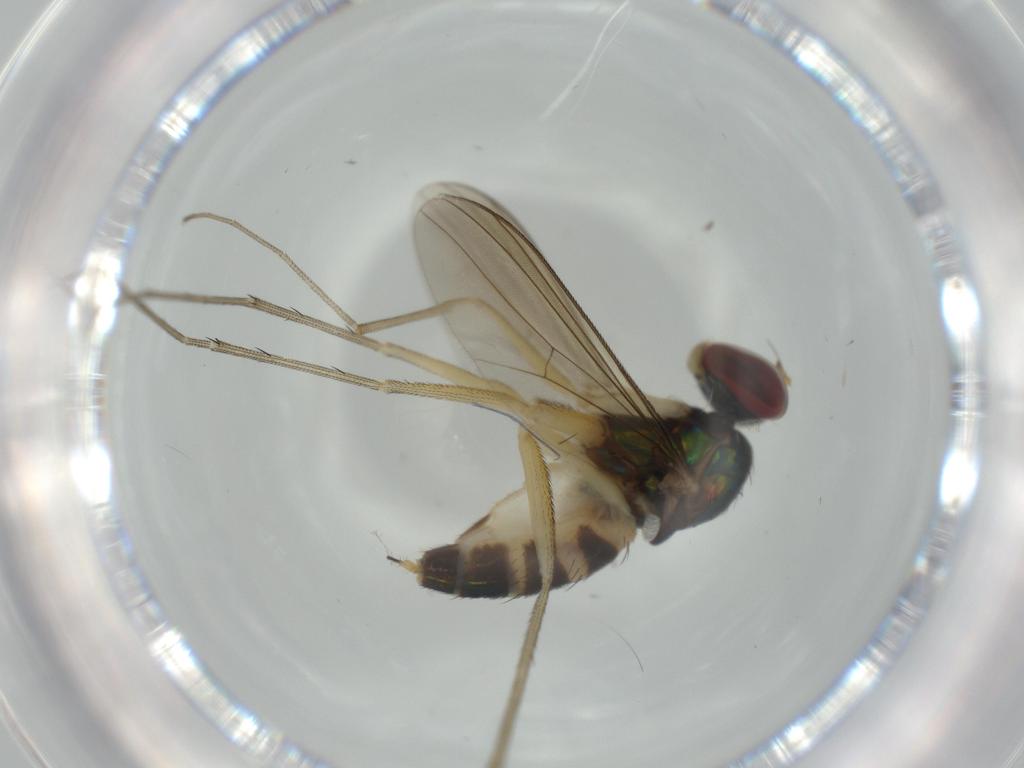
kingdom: Animalia
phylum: Arthropoda
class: Insecta
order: Diptera
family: Dolichopodidae
